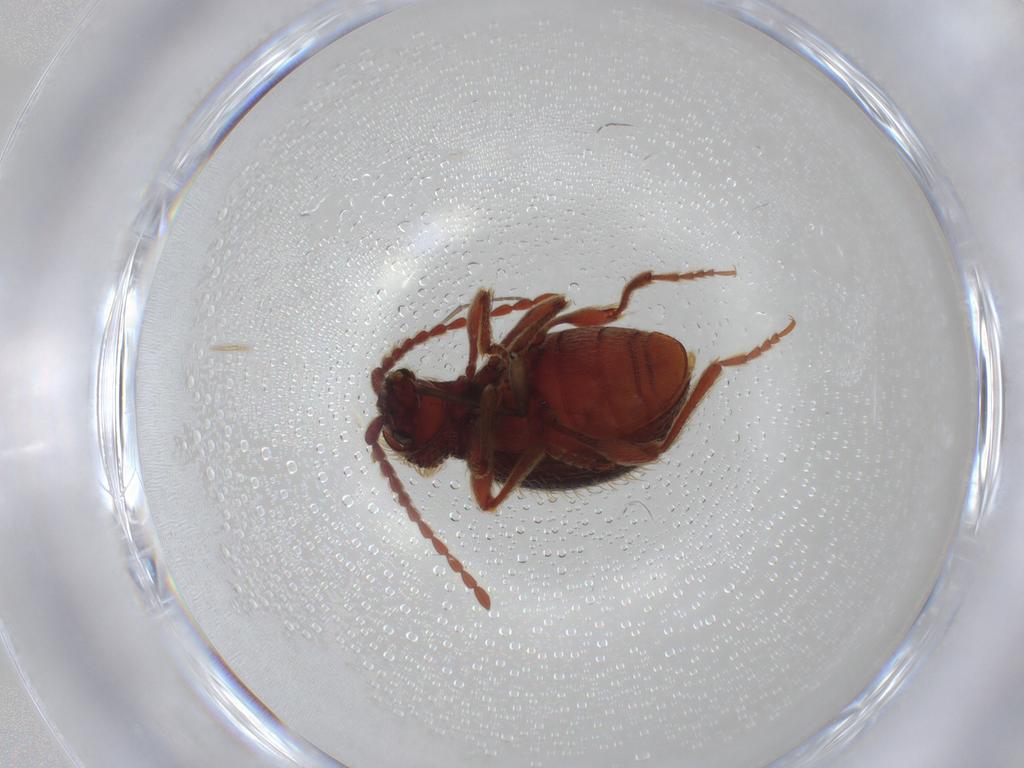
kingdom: Animalia
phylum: Arthropoda
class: Insecta
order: Coleoptera
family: Ptinidae
